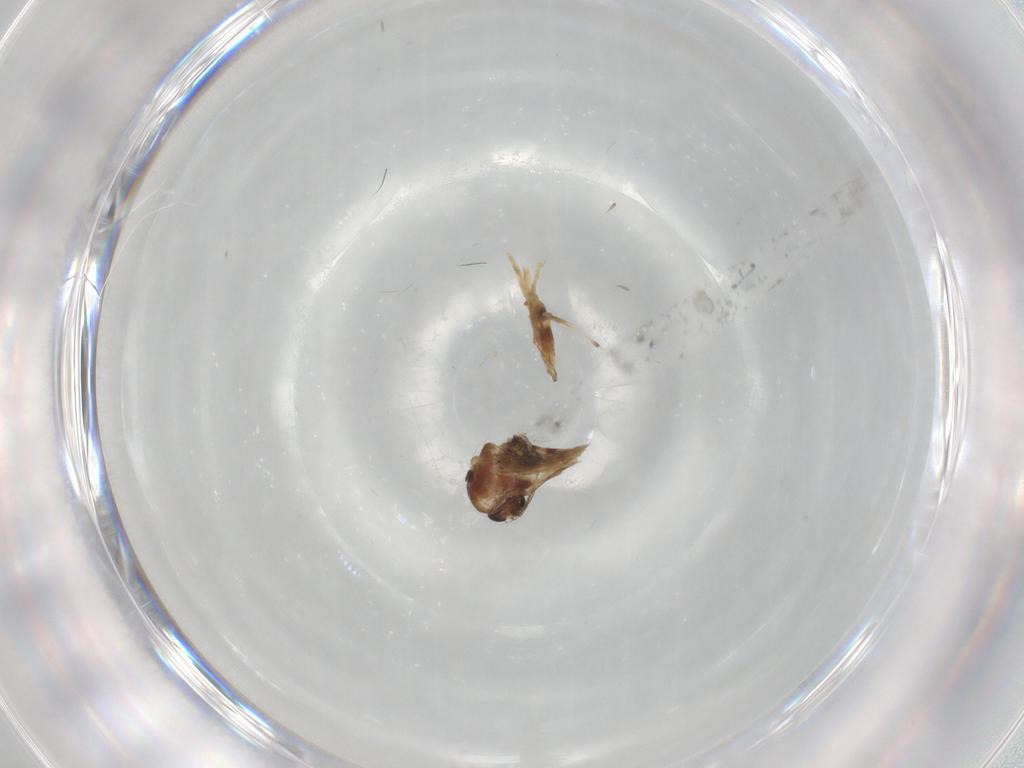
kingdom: Animalia
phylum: Arthropoda
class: Insecta
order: Diptera
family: Cecidomyiidae
